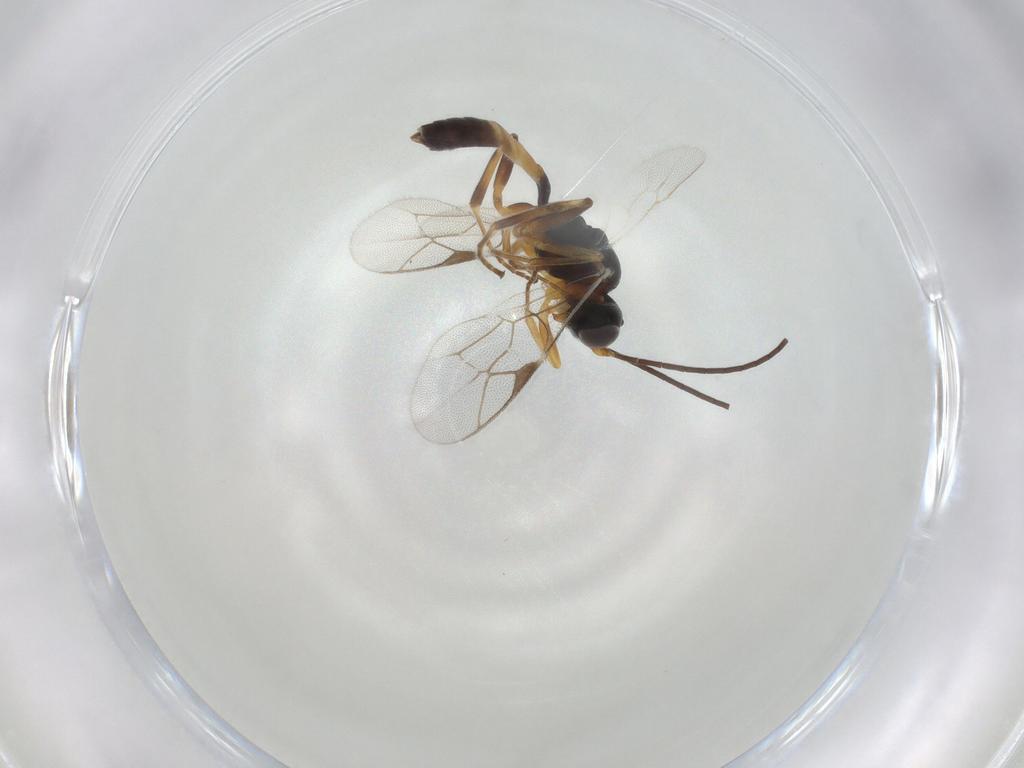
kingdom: Animalia
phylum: Arthropoda
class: Insecta
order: Hymenoptera
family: Ichneumonidae
